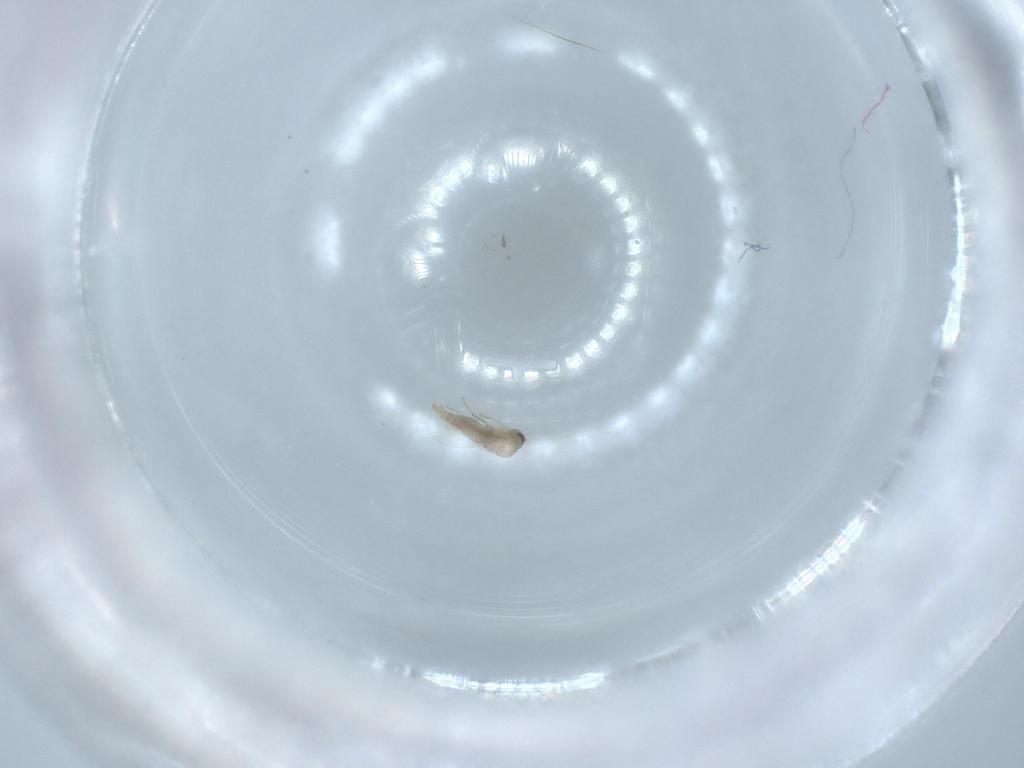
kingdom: Animalia
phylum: Arthropoda
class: Insecta
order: Diptera
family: Cecidomyiidae
